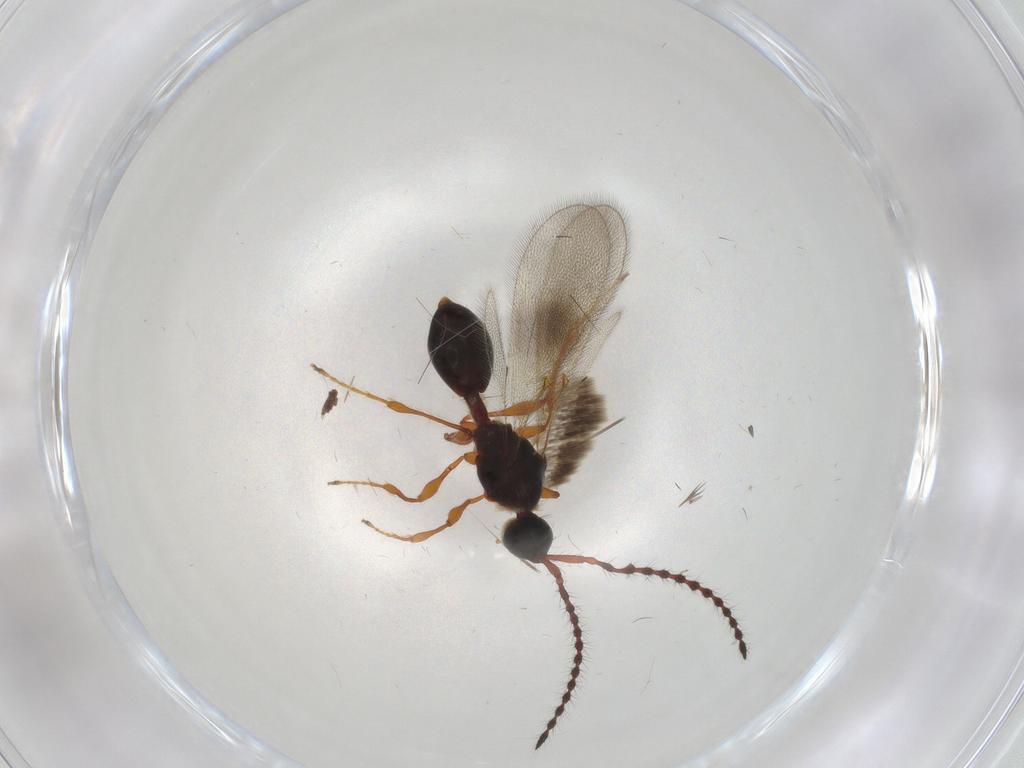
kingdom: Animalia
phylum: Arthropoda
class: Insecta
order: Hymenoptera
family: Diapriidae
